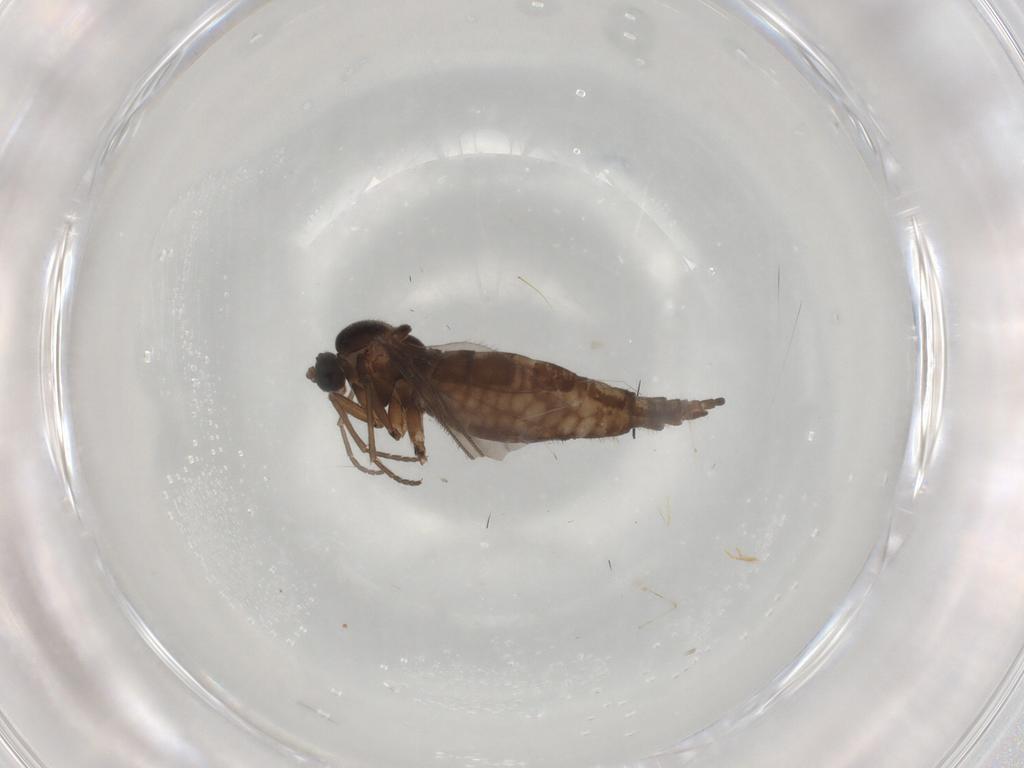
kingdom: Animalia
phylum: Arthropoda
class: Insecta
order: Diptera
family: Sciaridae
